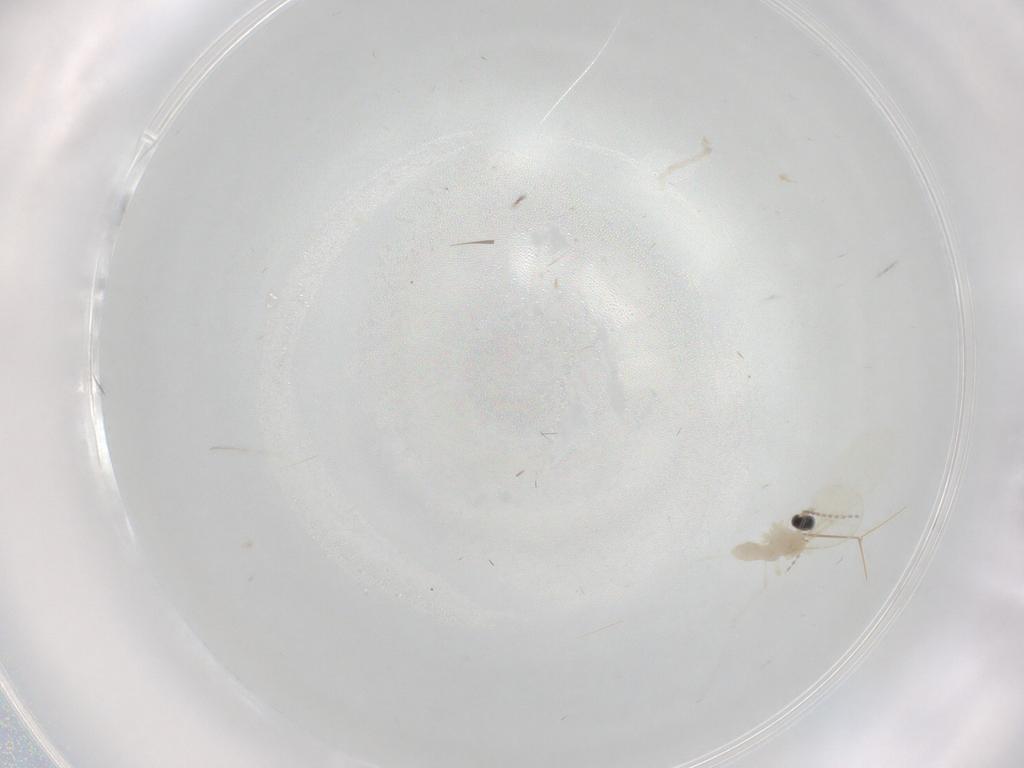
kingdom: Animalia
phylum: Arthropoda
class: Insecta
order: Diptera
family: Cecidomyiidae
